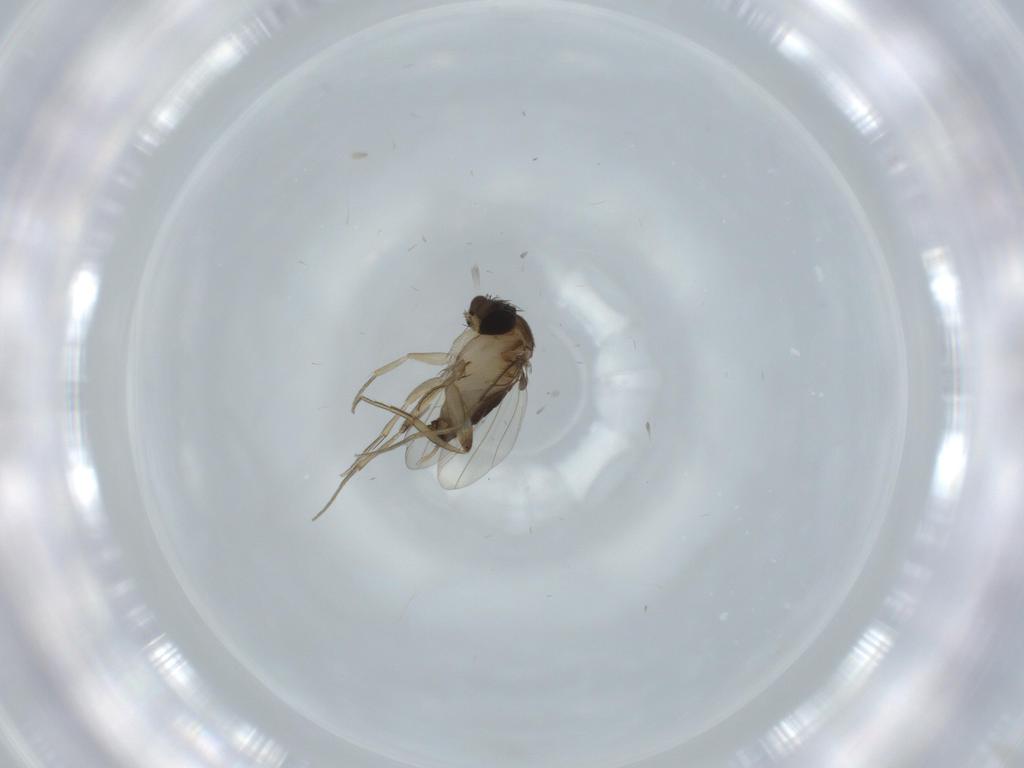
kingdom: Animalia
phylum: Arthropoda
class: Insecta
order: Diptera
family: Phoridae
